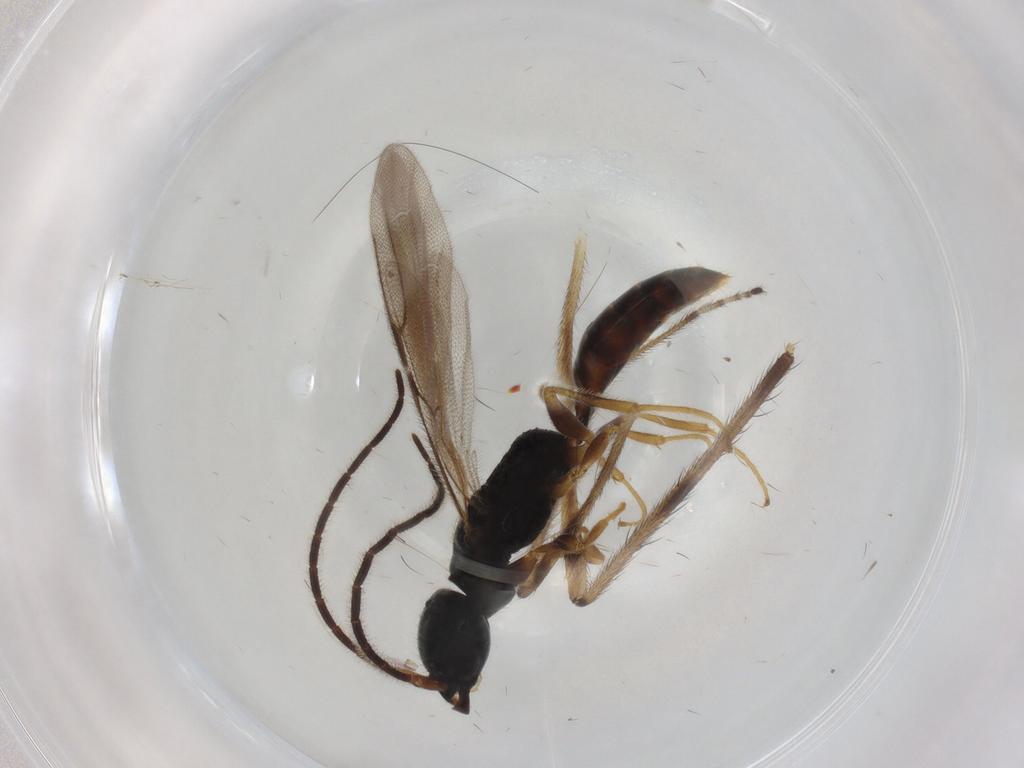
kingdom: Animalia
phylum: Arthropoda
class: Insecta
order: Hymenoptera
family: Bethylidae
